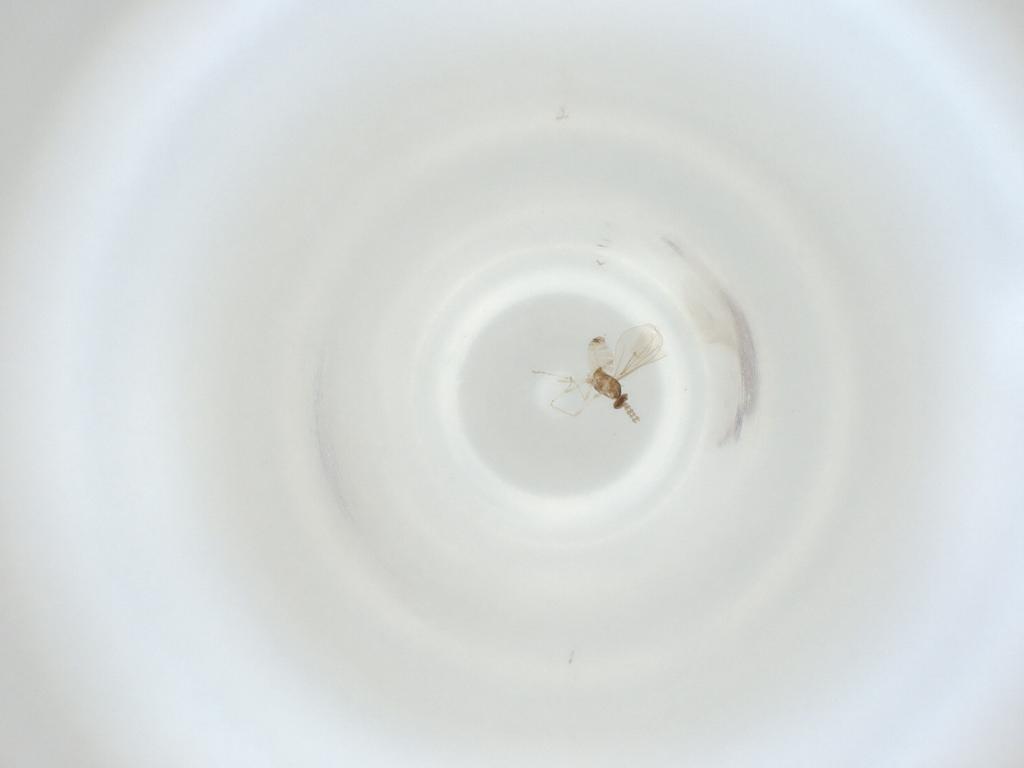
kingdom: Animalia
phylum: Arthropoda
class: Insecta
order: Diptera
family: Cecidomyiidae
